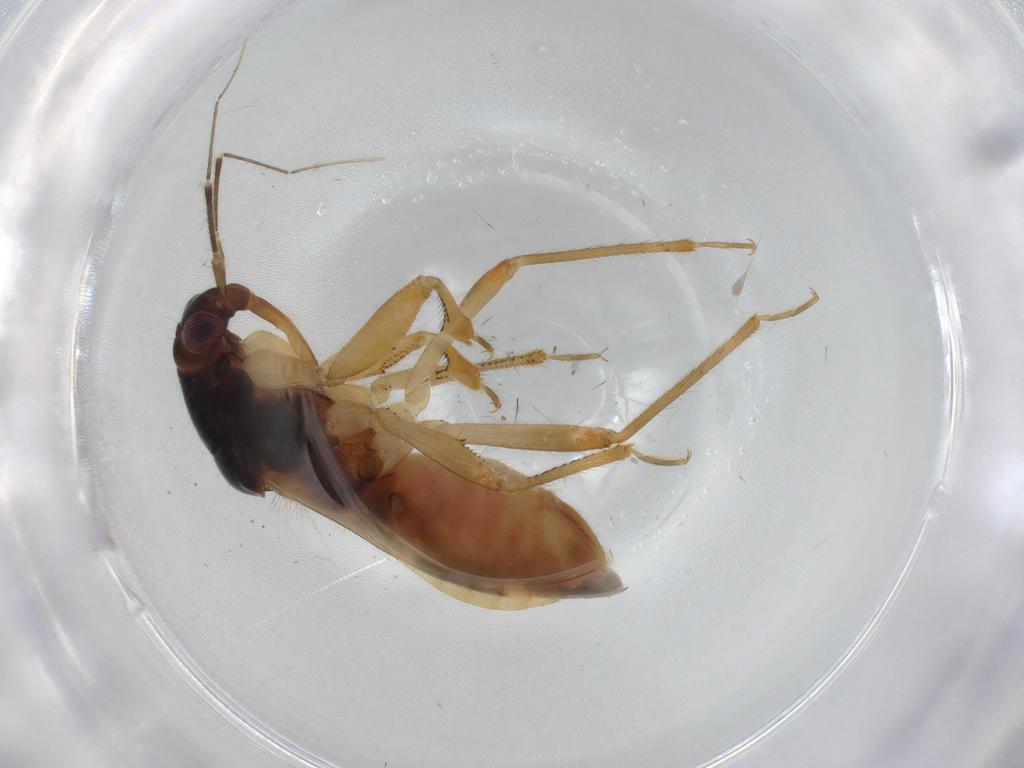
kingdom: Animalia
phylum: Arthropoda
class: Insecta
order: Hemiptera
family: Nabidae
